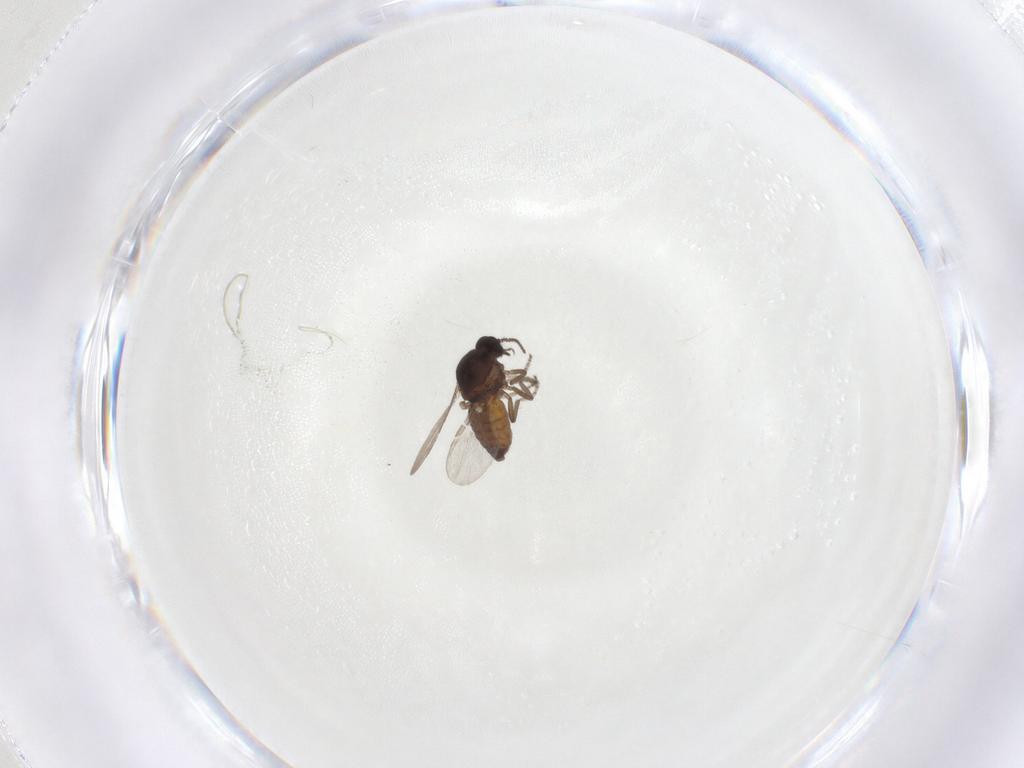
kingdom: Animalia
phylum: Arthropoda
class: Insecta
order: Diptera
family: Ceratopogonidae
